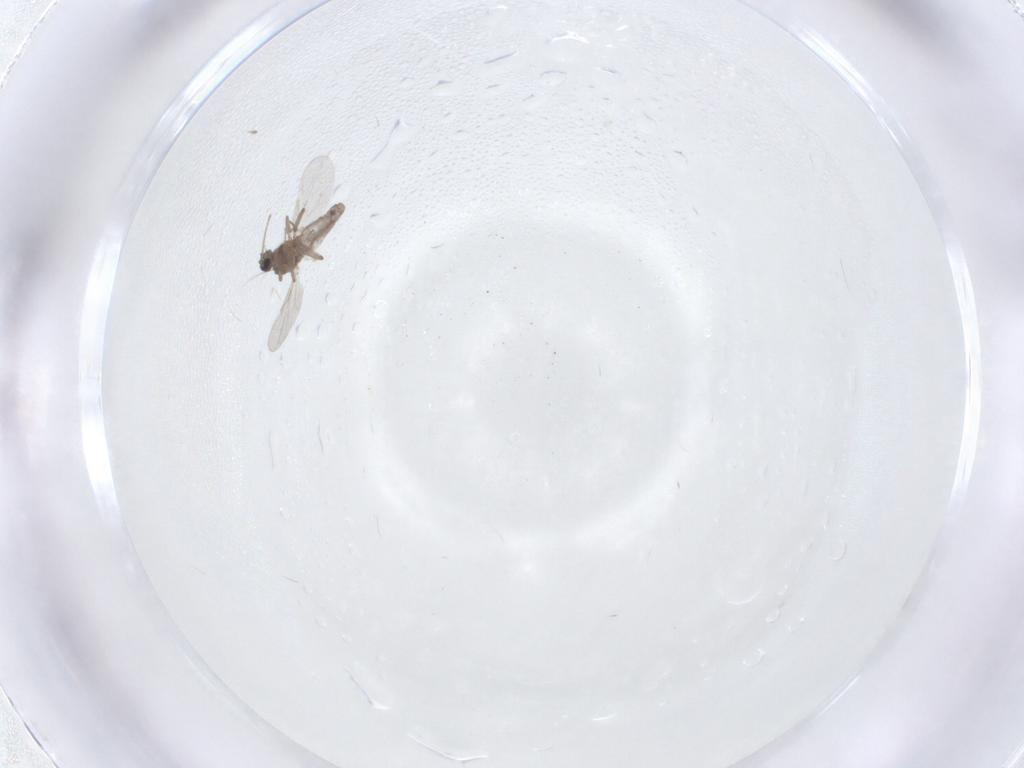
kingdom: Animalia
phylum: Arthropoda
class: Insecta
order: Diptera
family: Ceratopogonidae
